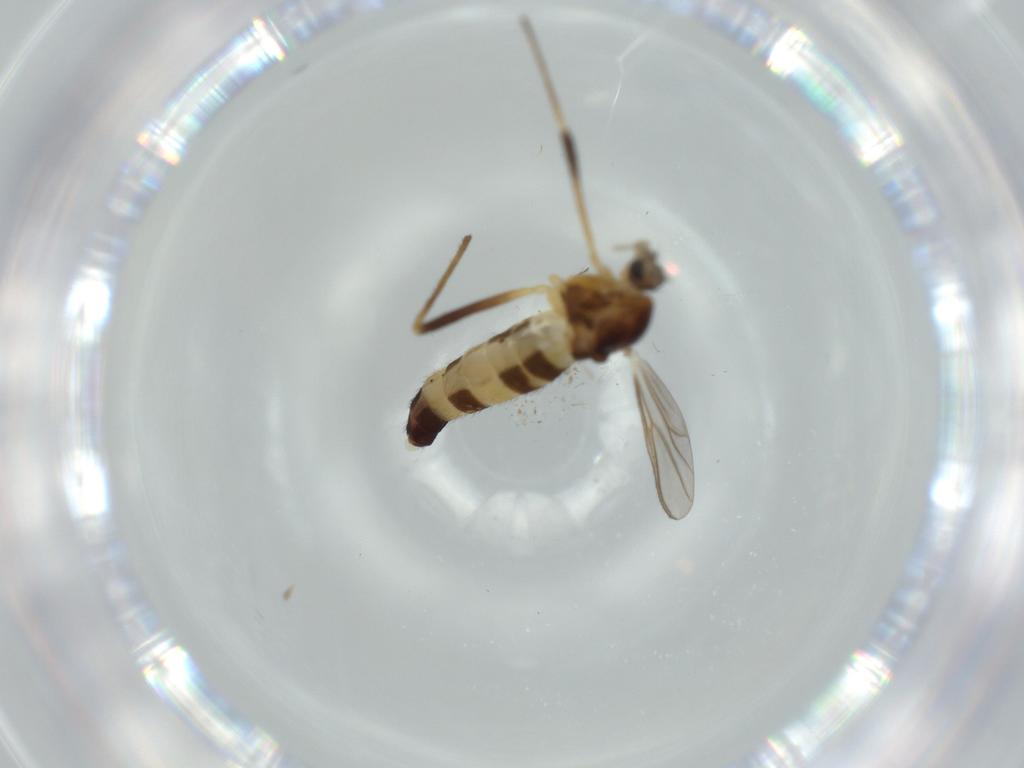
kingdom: Animalia
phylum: Arthropoda
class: Insecta
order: Diptera
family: Chironomidae
